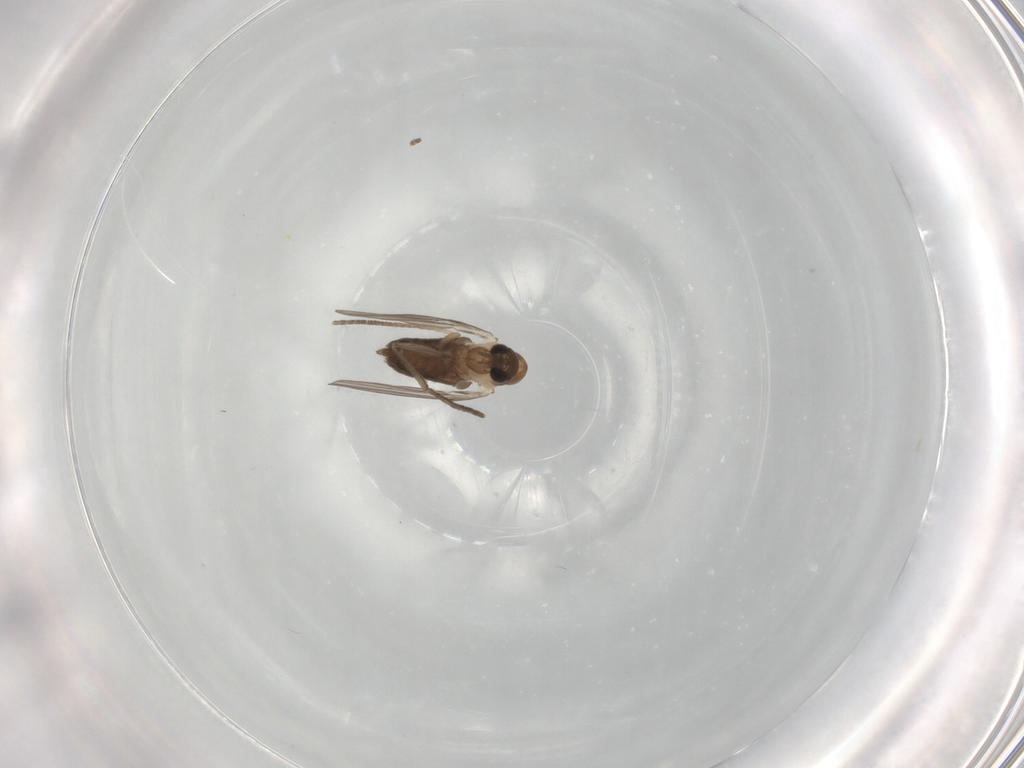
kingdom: Animalia
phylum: Arthropoda
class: Insecta
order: Diptera
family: Psychodidae
